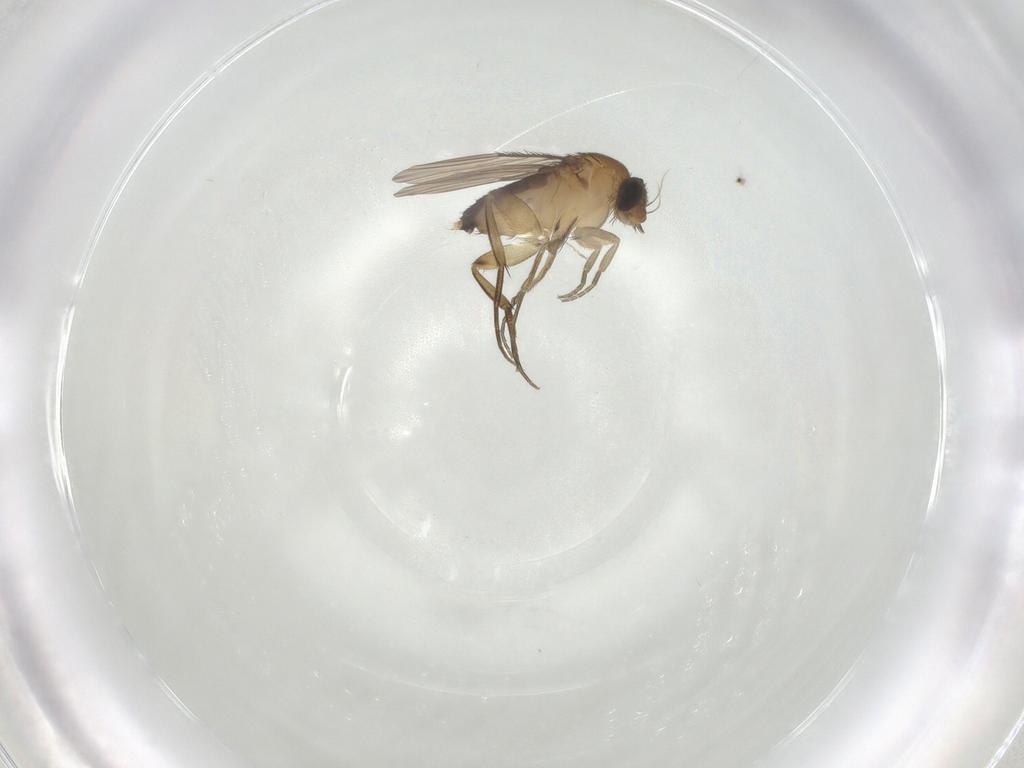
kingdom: Animalia
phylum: Arthropoda
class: Insecta
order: Diptera
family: Phoridae
